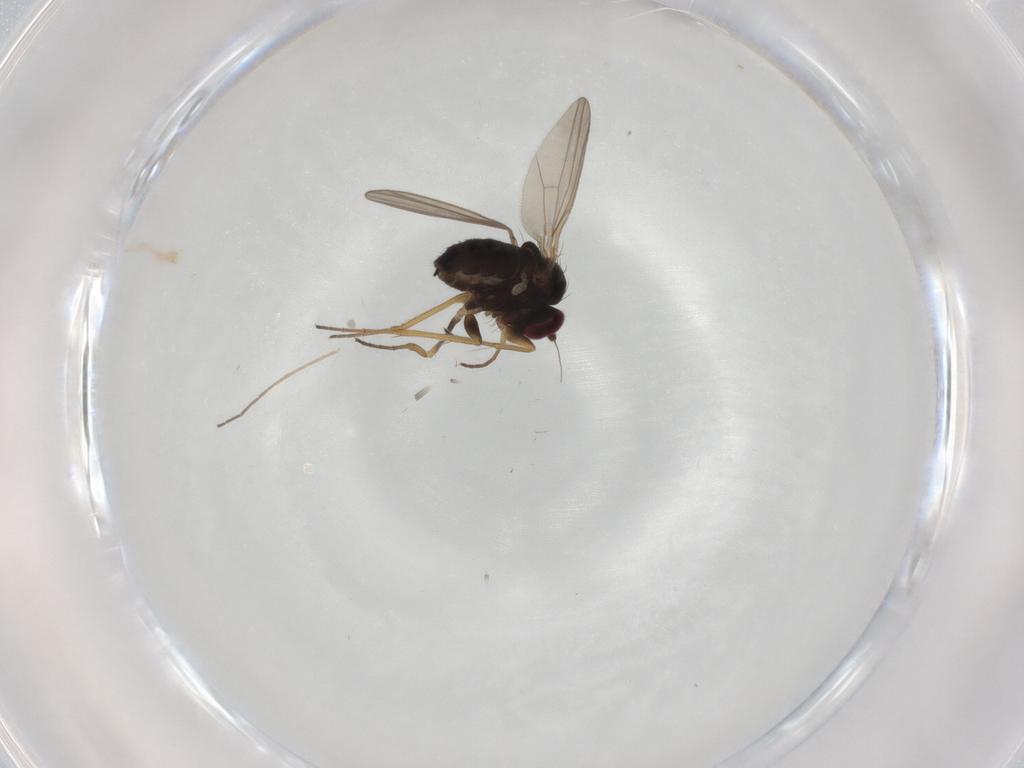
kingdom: Animalia
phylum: Arthropoda
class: Insecta
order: Diptera
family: Chironomidae
